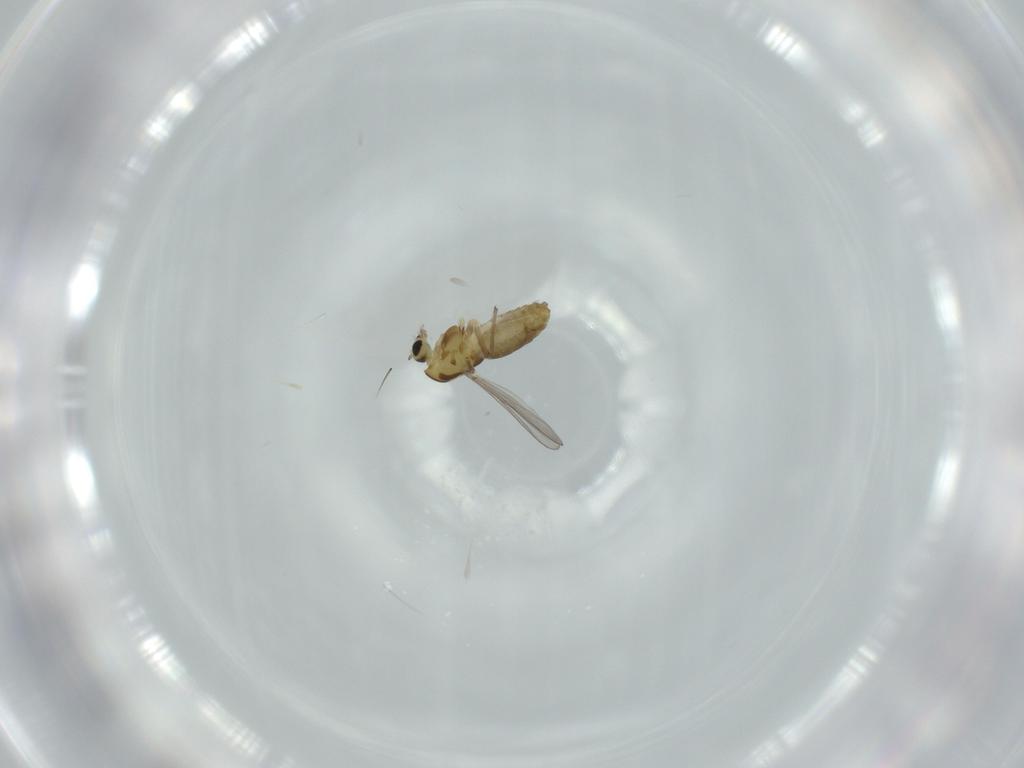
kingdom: Animalia
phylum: Arthropoda
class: Insecta
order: Diptera
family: Chironomidae
